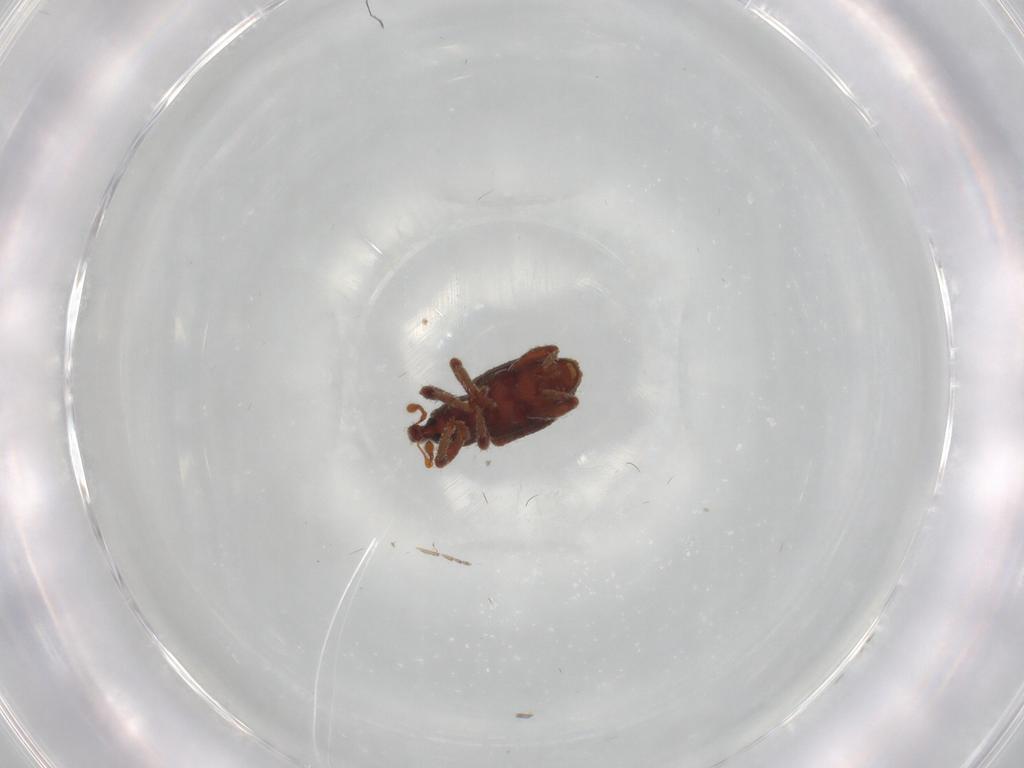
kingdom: Animalia
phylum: Arthropoda
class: Insecta
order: Coleoptera
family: Curculionidae
